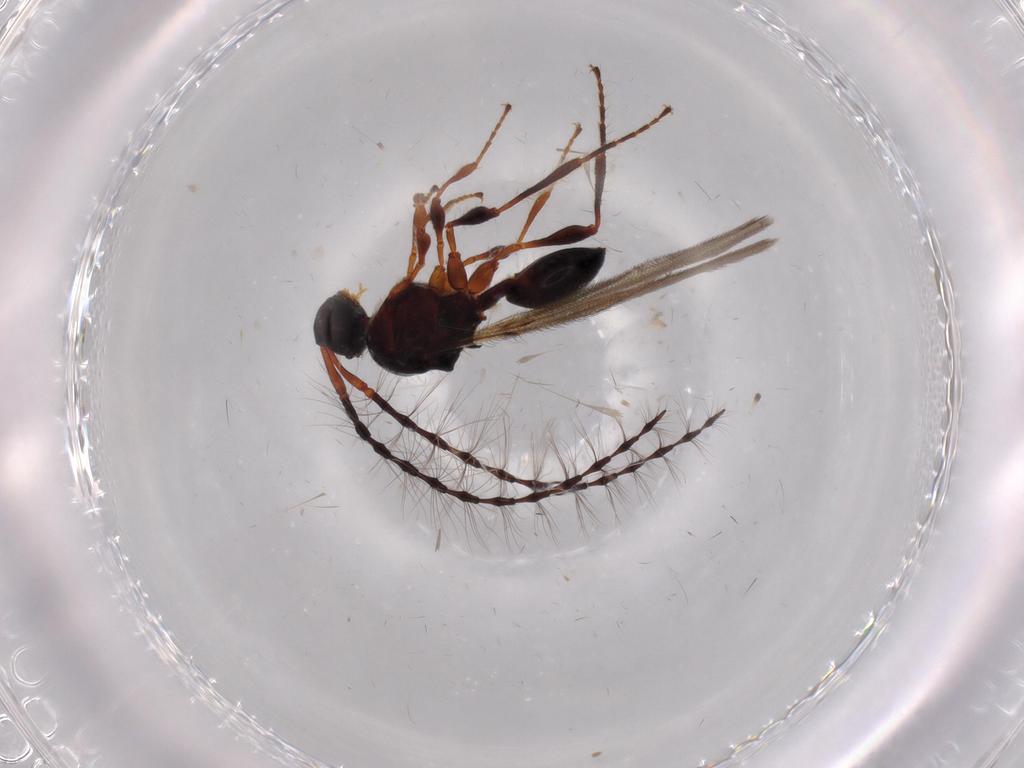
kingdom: Animalia
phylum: Arthropoda
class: Insecta
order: Hymenoptera
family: Diapriidae
